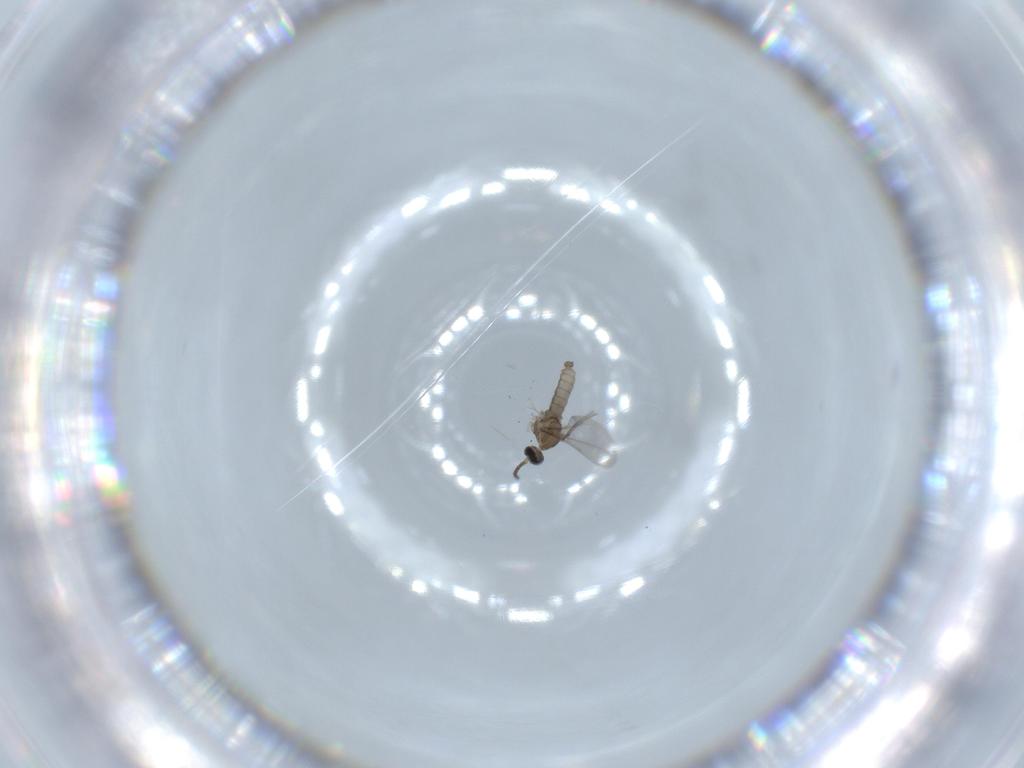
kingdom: Animalia
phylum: Arthropoda
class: Insecta
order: Diptera
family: Cecidomyiidae
